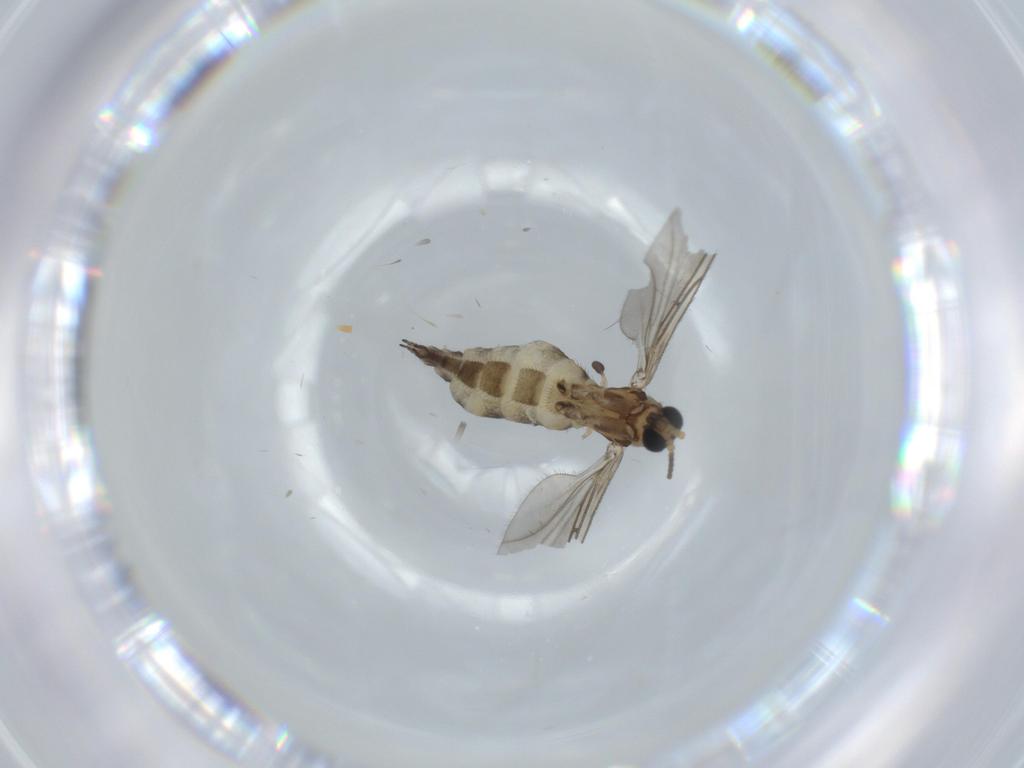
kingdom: Animalia
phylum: Arthropoda
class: Insecta
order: Diptera
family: Sciaridae
